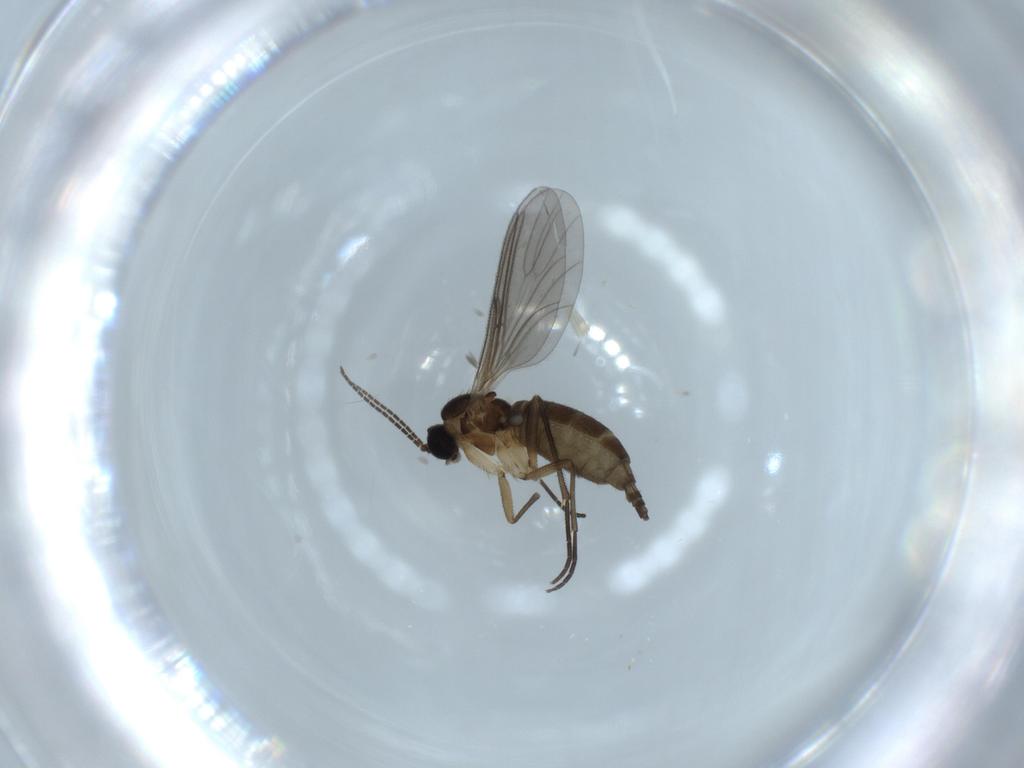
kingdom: Animalia
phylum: Arthropoda
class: Insecta
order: Diptera
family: Sciaridae
